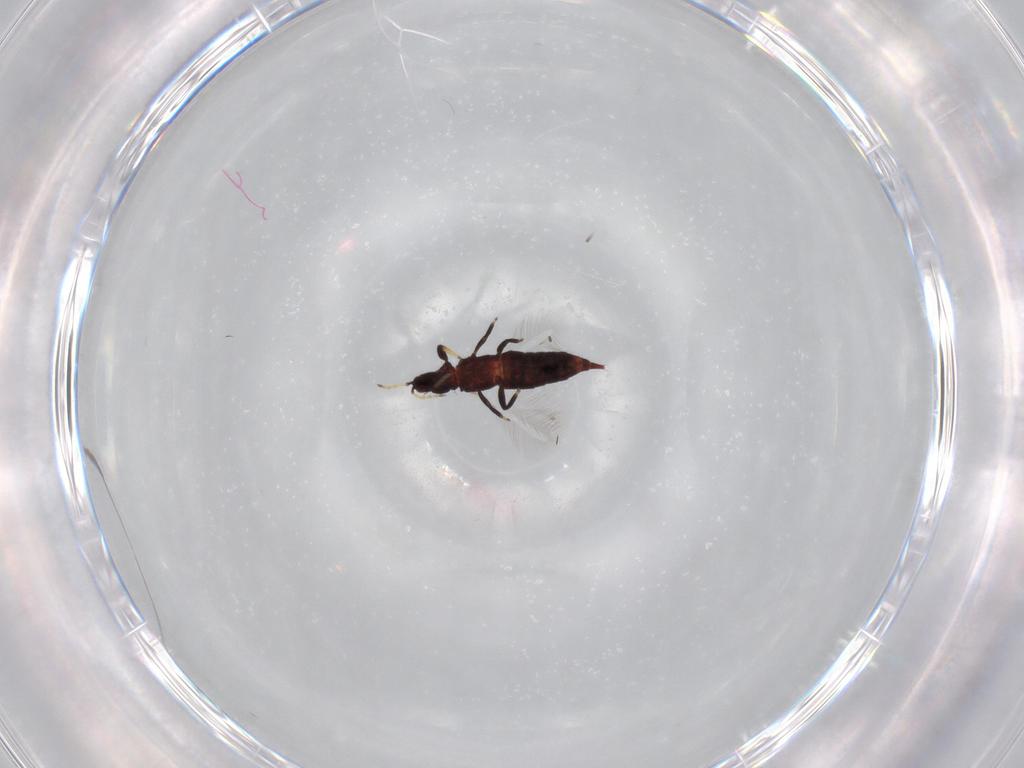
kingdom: Animalia
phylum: Arthropoda
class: Insecta
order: Thysanoptera
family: Phlaeothripidae
